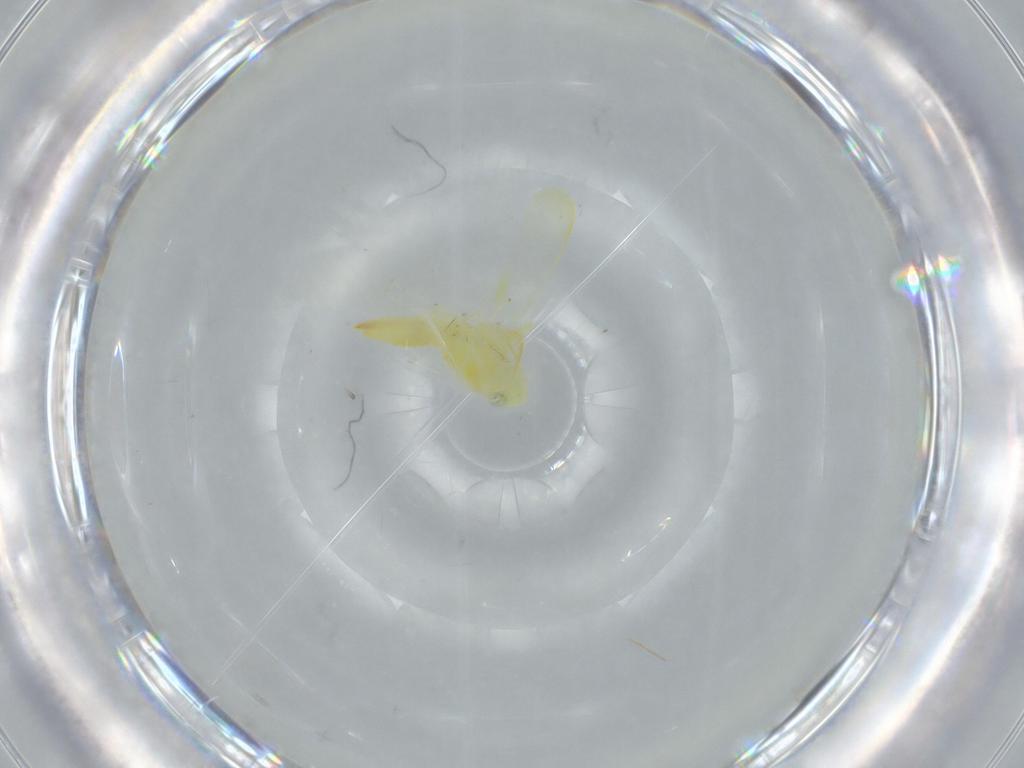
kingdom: Animalia
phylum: Arthropoda
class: Insecta
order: Hemiptera
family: Cicadellidae
